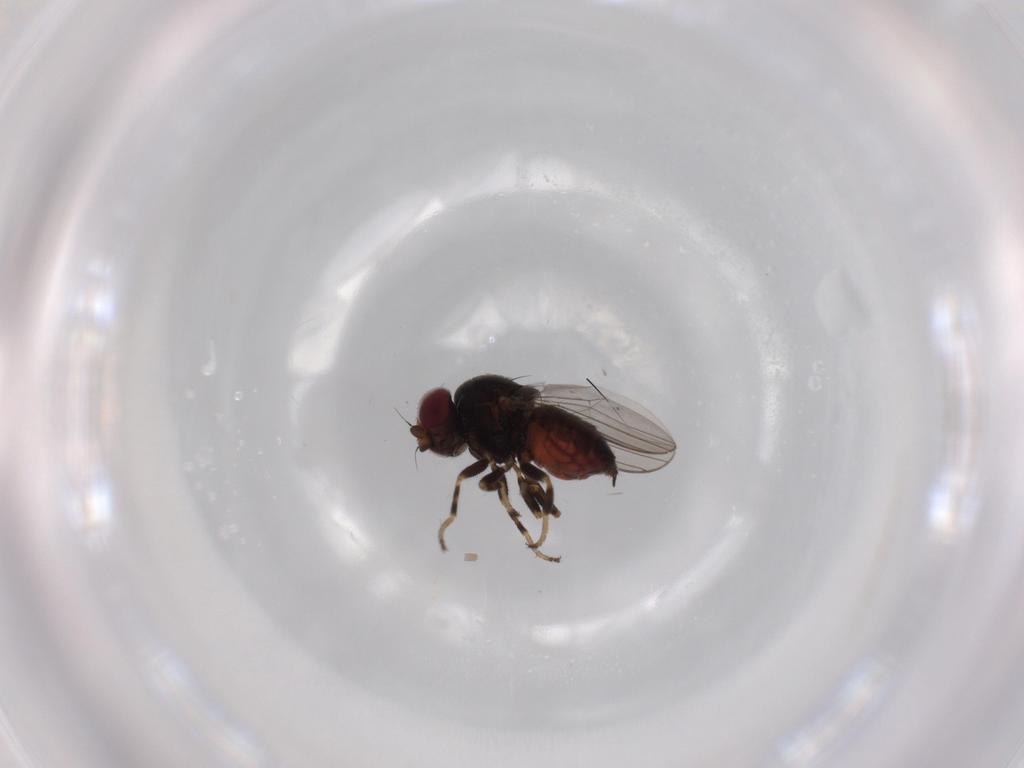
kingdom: Animalia
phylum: Arthropoda
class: Insecta
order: Diptera
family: Chloropidae
